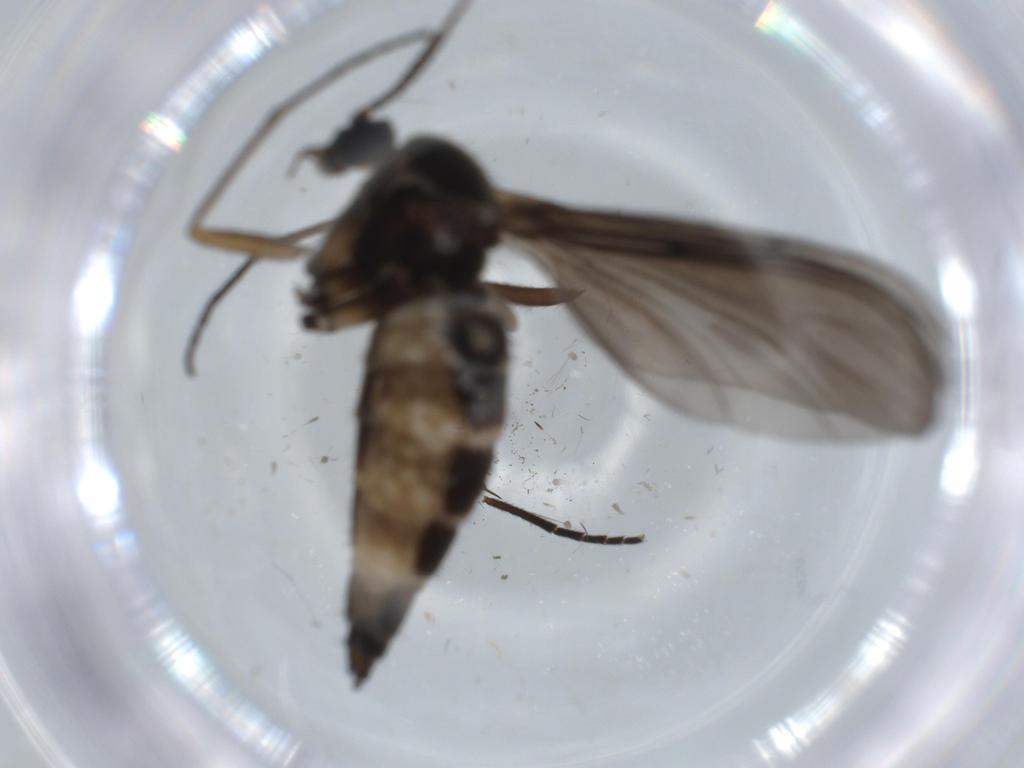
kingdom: Animalia
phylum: Arthropoda
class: Insecta
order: Diptera
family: Sciaridae
